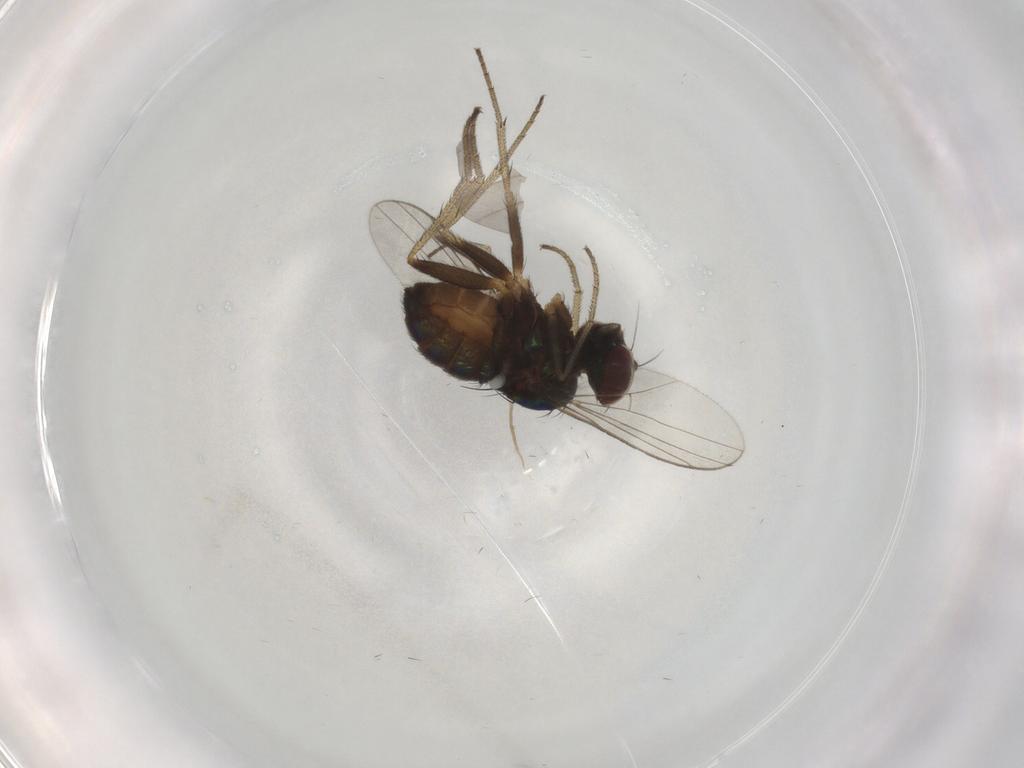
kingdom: Animalia
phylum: Arthropoda
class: Insecta
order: Diptera
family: Dolichopodidae
